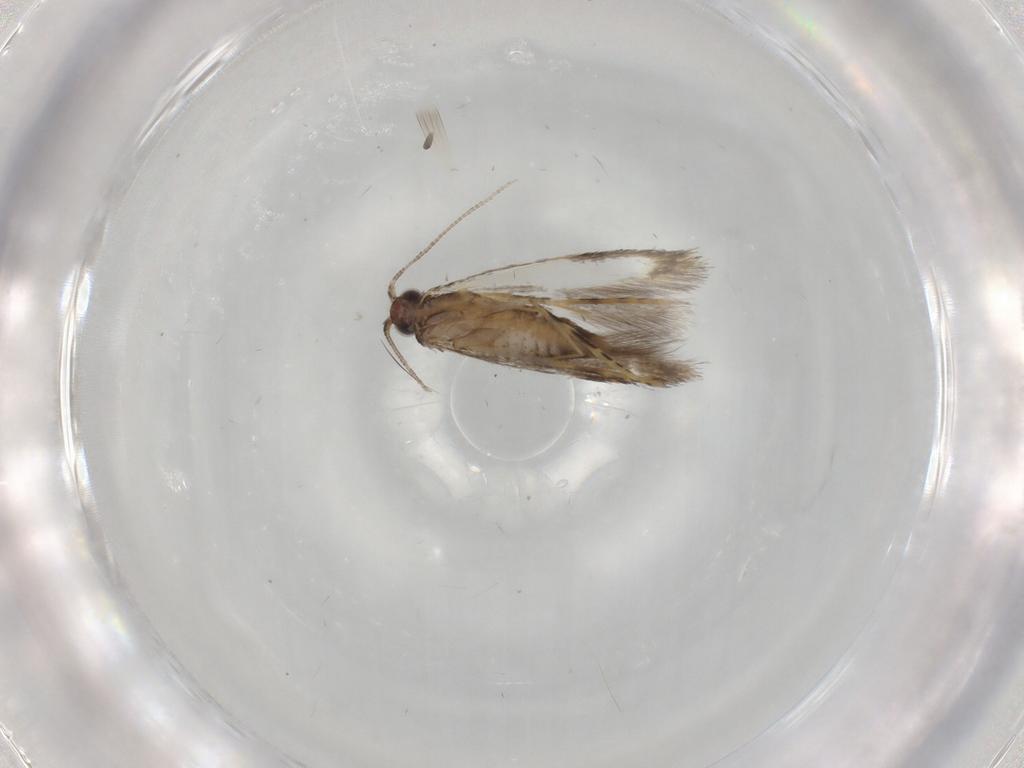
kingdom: Animalia
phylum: Arthropoda
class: Insecta
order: Lepidoptera
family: Tineidae
